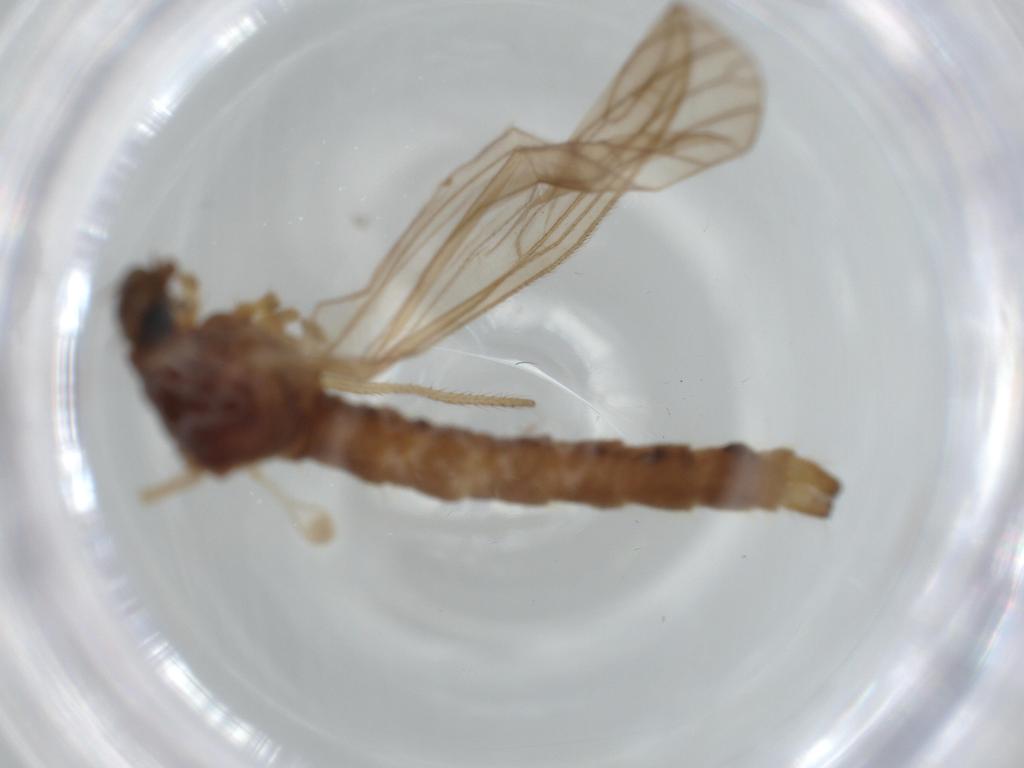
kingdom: Animalia
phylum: Arthropoda
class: Insecta
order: Diptera
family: Limoniidae
